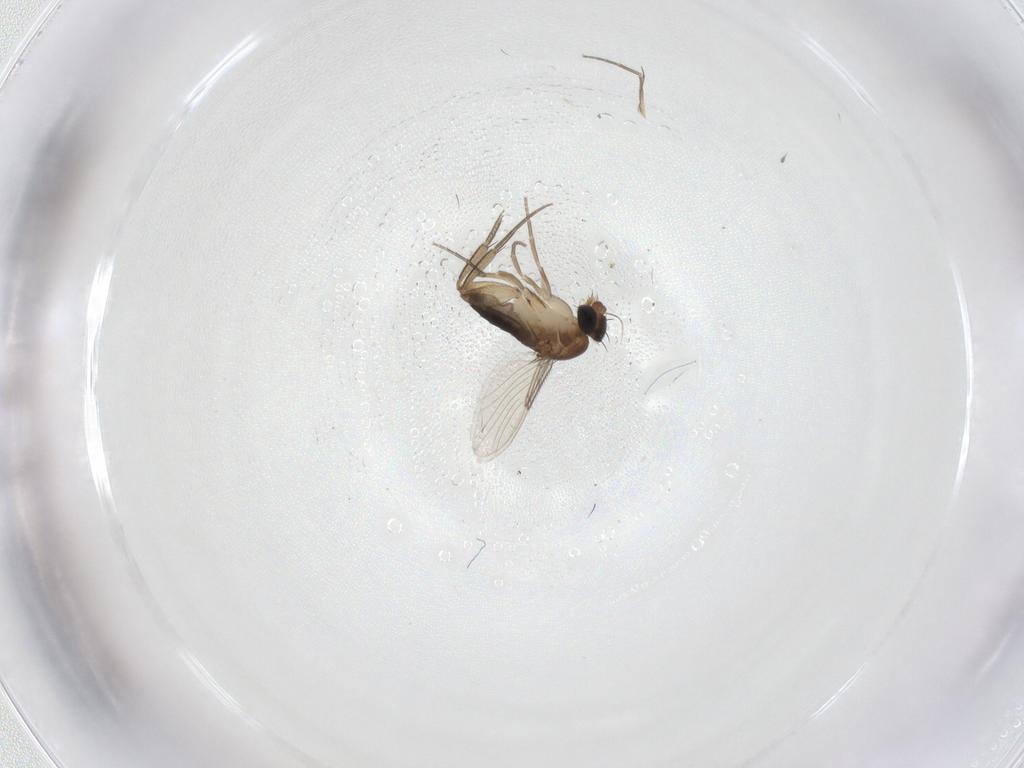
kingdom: Animalia
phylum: Arthropoda
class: Insecta
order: Diptera
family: Phoridae
